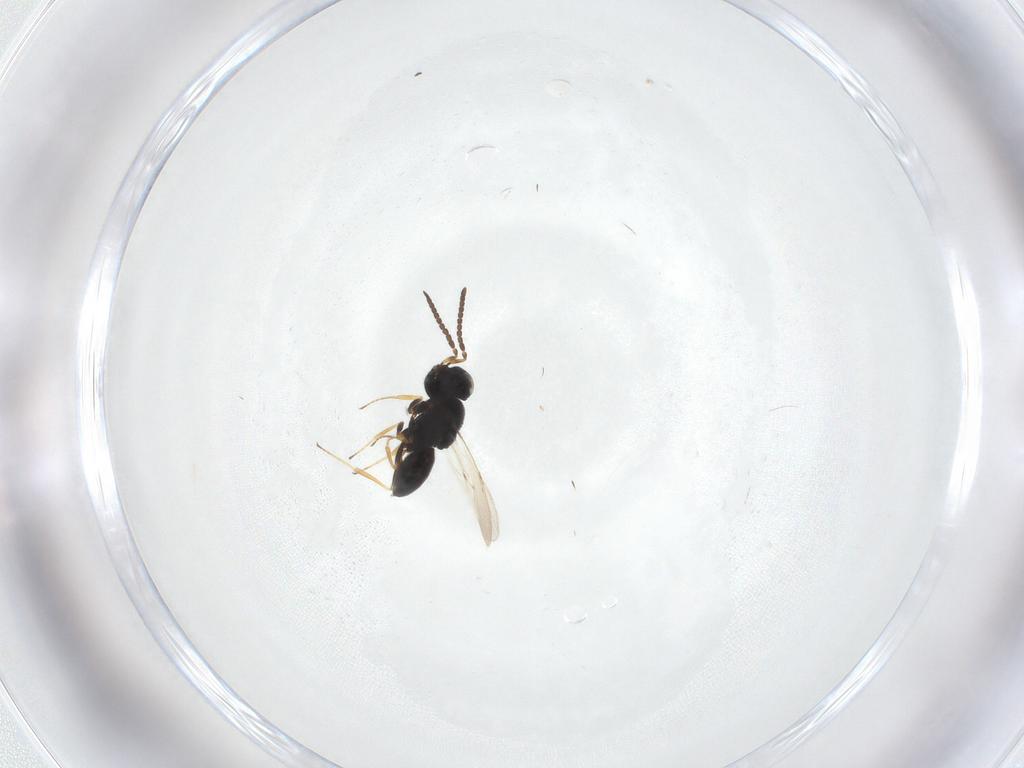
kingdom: Animalia
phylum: Arthropoda
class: Insecta
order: Hymenoptera
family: Scelionidae
